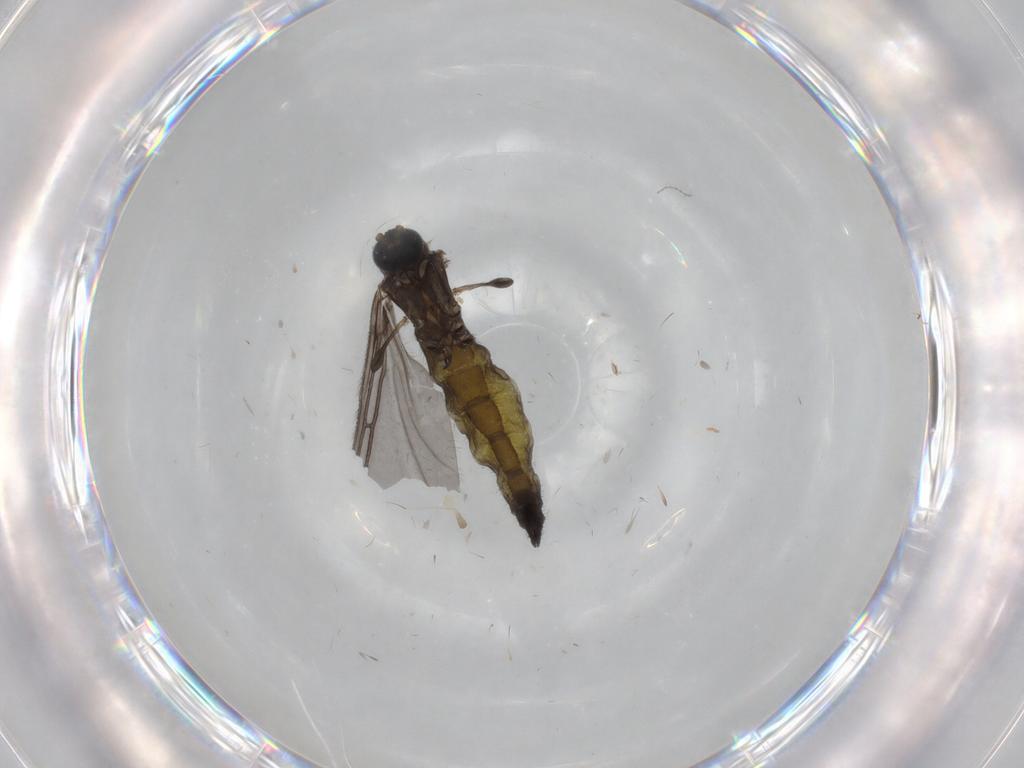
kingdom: Animalia
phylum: Arthropoda
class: Insecta
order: Diptera
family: Sciaridae
